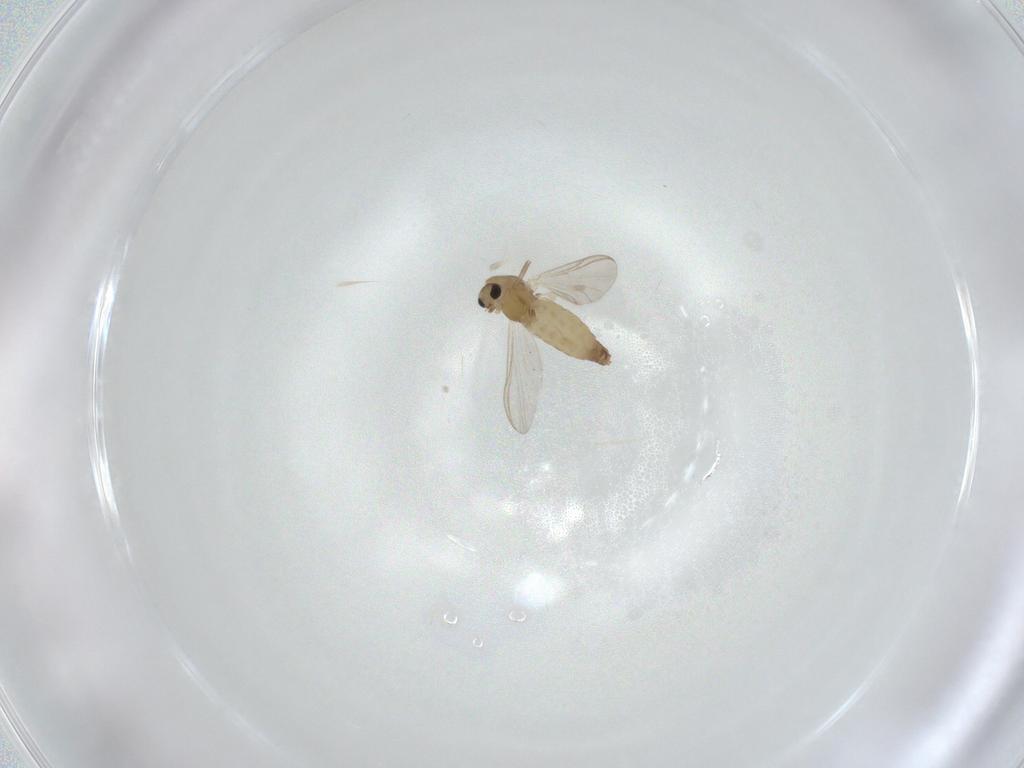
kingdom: Animalia
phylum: Arthropoda
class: Insecta
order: Diptera
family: Chironomidae
